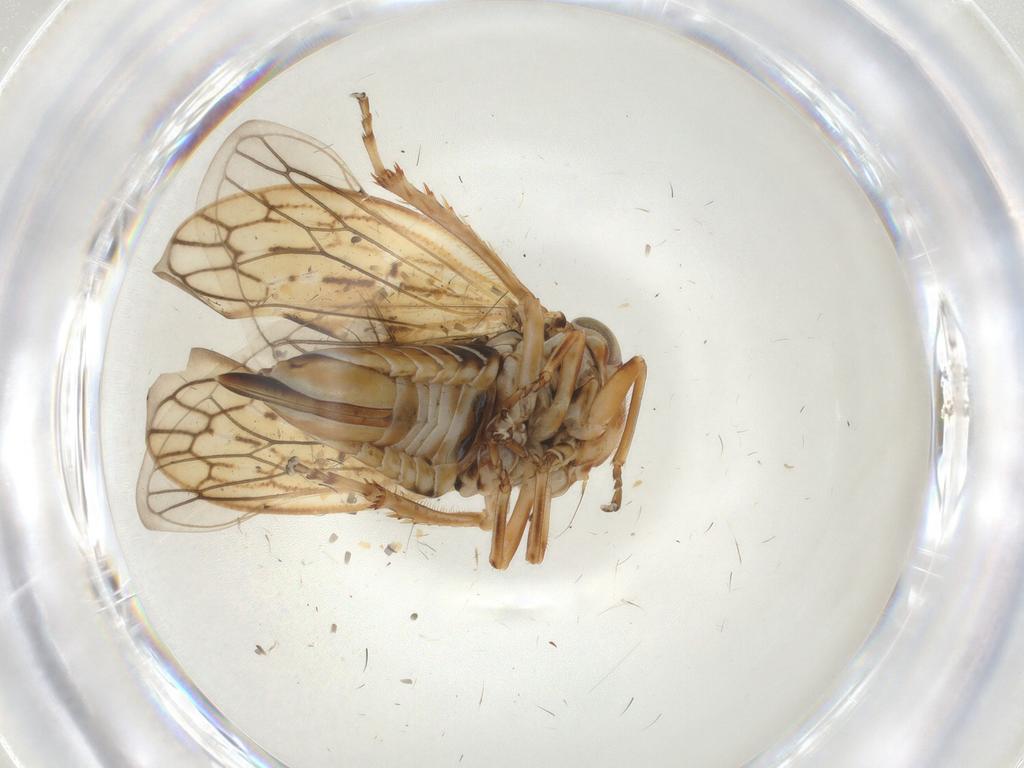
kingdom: Animalia
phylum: Arthropoda
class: Insecta
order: Hemiptera
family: Cicadellidae
